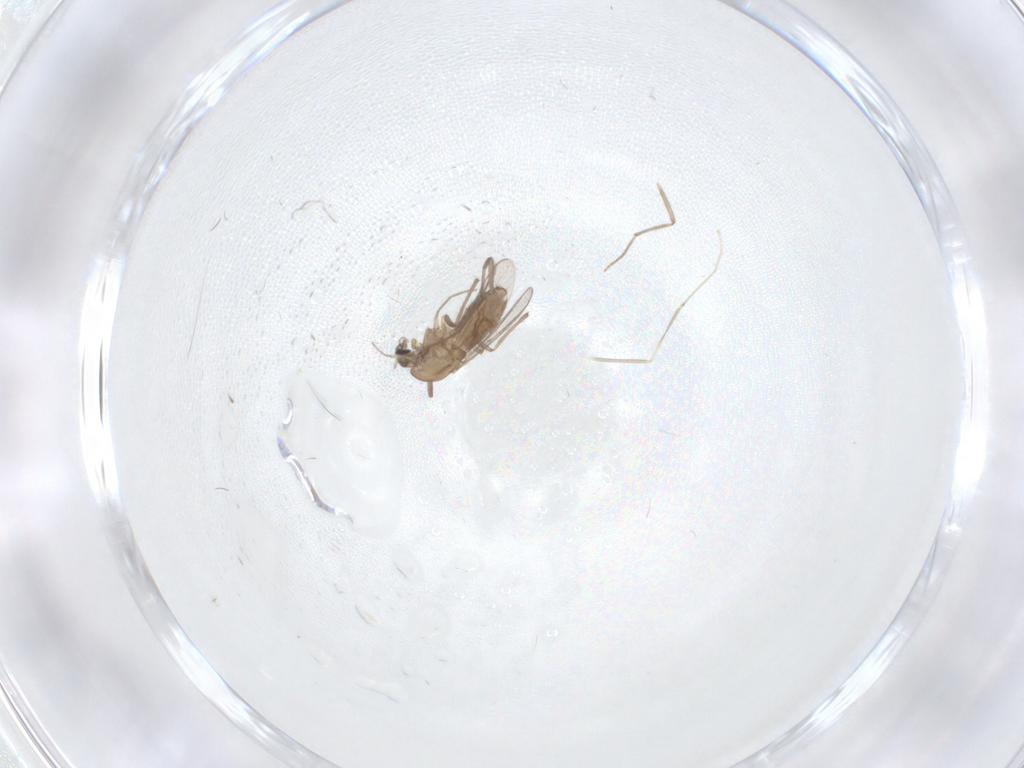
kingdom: Animalia
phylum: Arthropoda
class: Insecta
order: Diptera
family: Chironomidae
